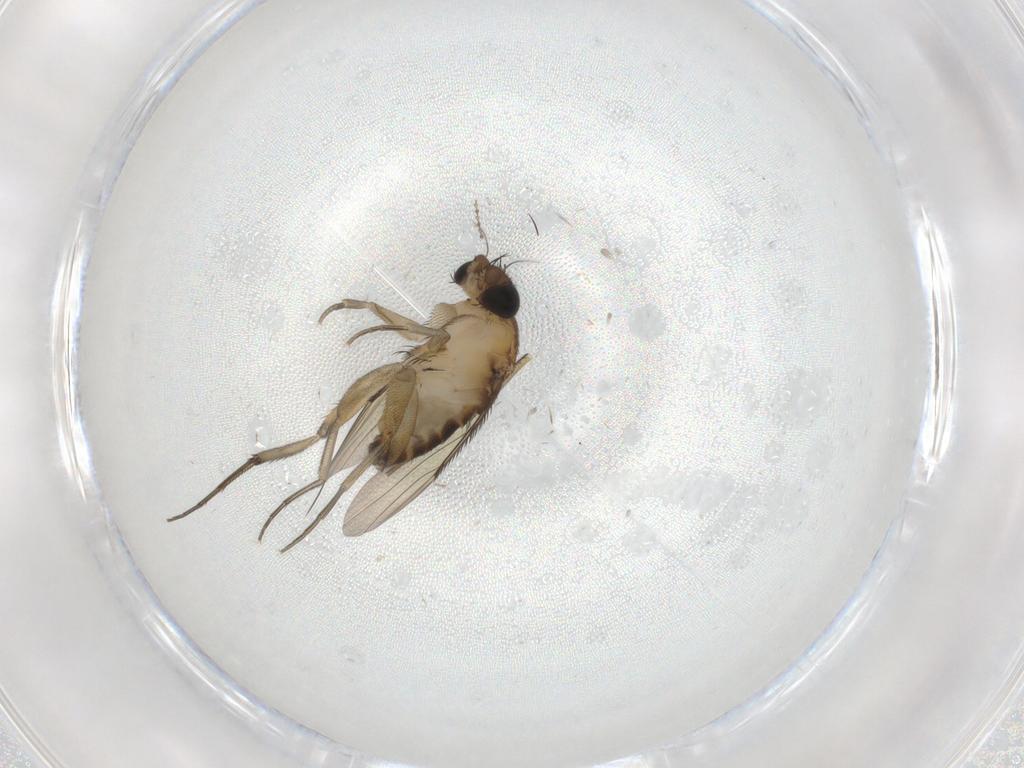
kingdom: Animalia
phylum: Arthropoda
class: Insecta
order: Diptera
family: Phoridae
